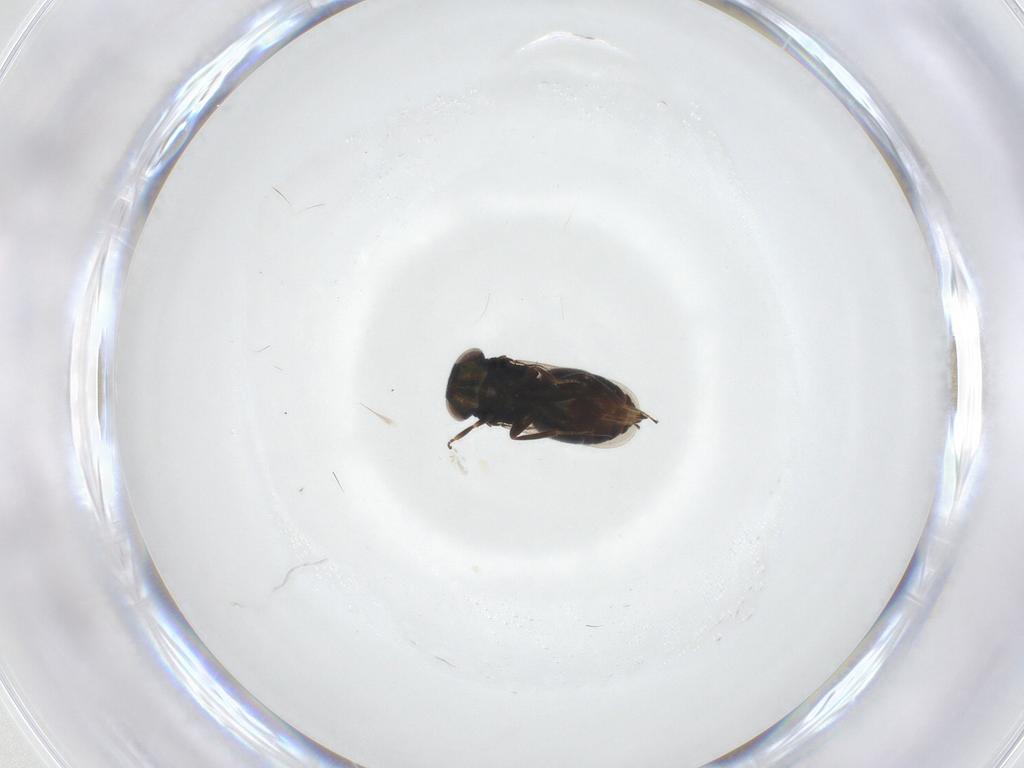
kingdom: Animalia
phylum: Arthropoda
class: Insecta
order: Hymenoptera
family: Eunotidae
